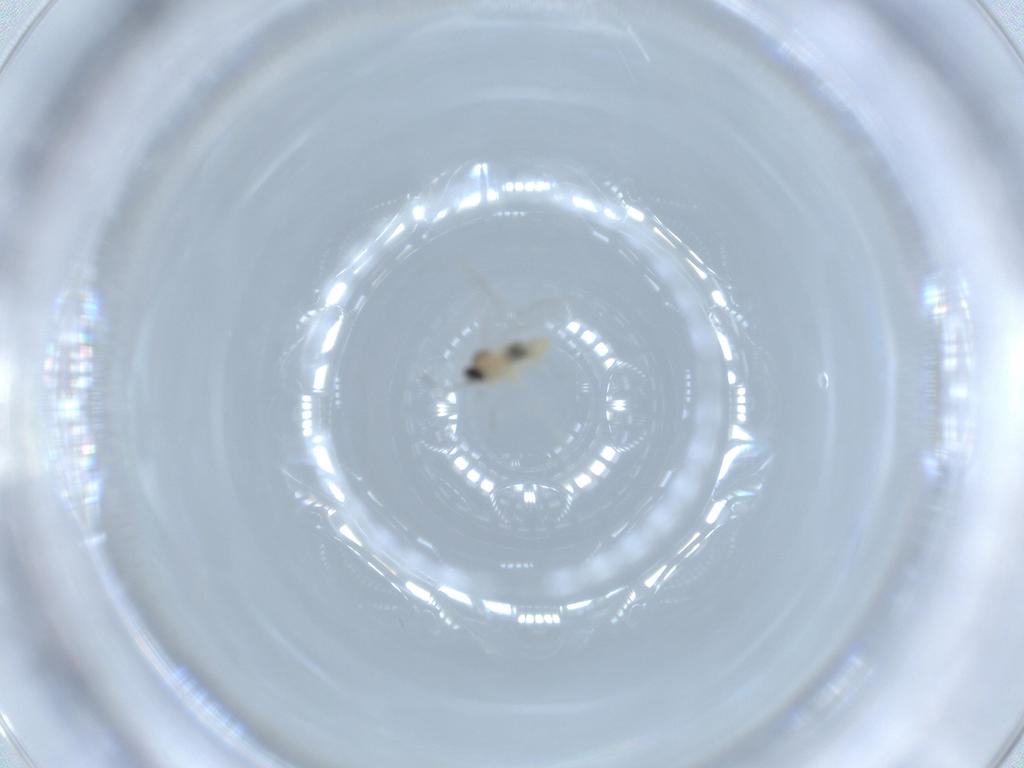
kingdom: Animalia
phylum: Arthropoda
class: Insecta
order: Diptera
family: Cecidomyiidae
